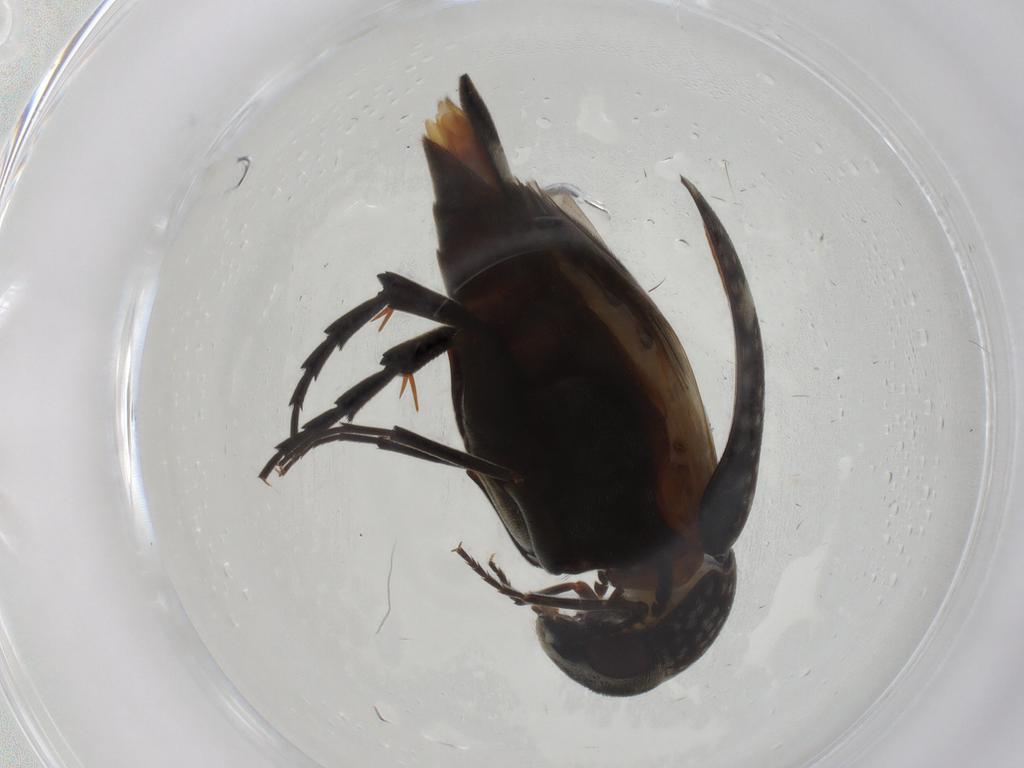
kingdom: Animalia
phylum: Arthropoda
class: Insecta
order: Coleoptera
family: Mordellidae
